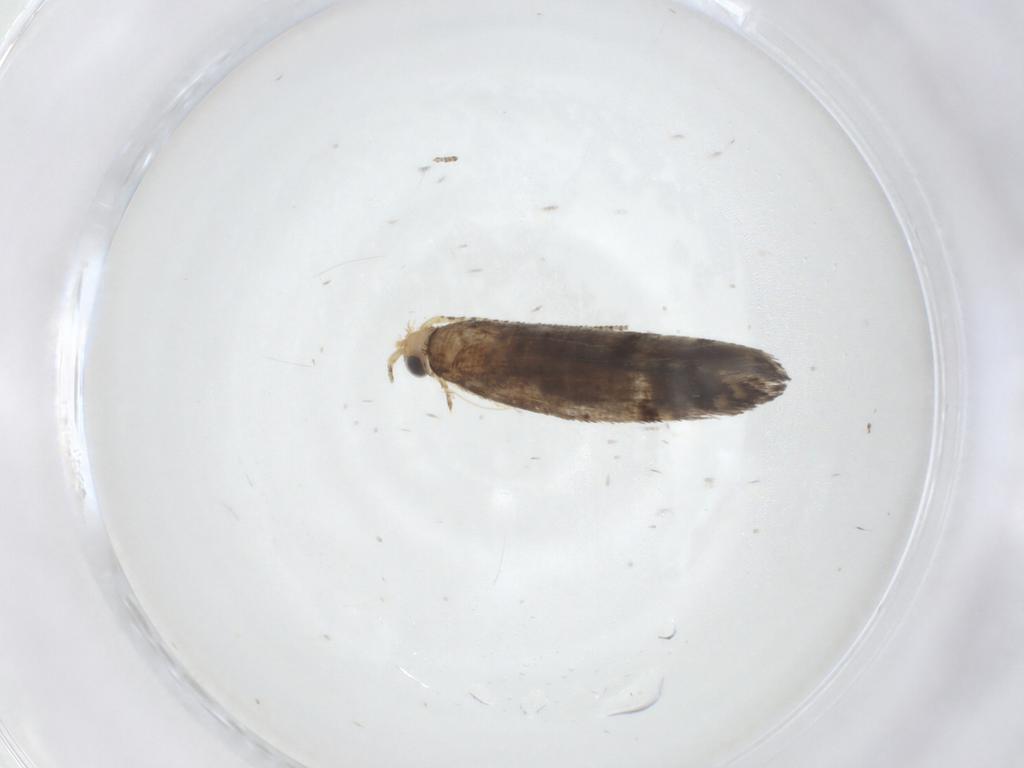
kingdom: Animalia
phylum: Arthropoda
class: Insecta
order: Lepidoptera
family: Argyresthiidae
